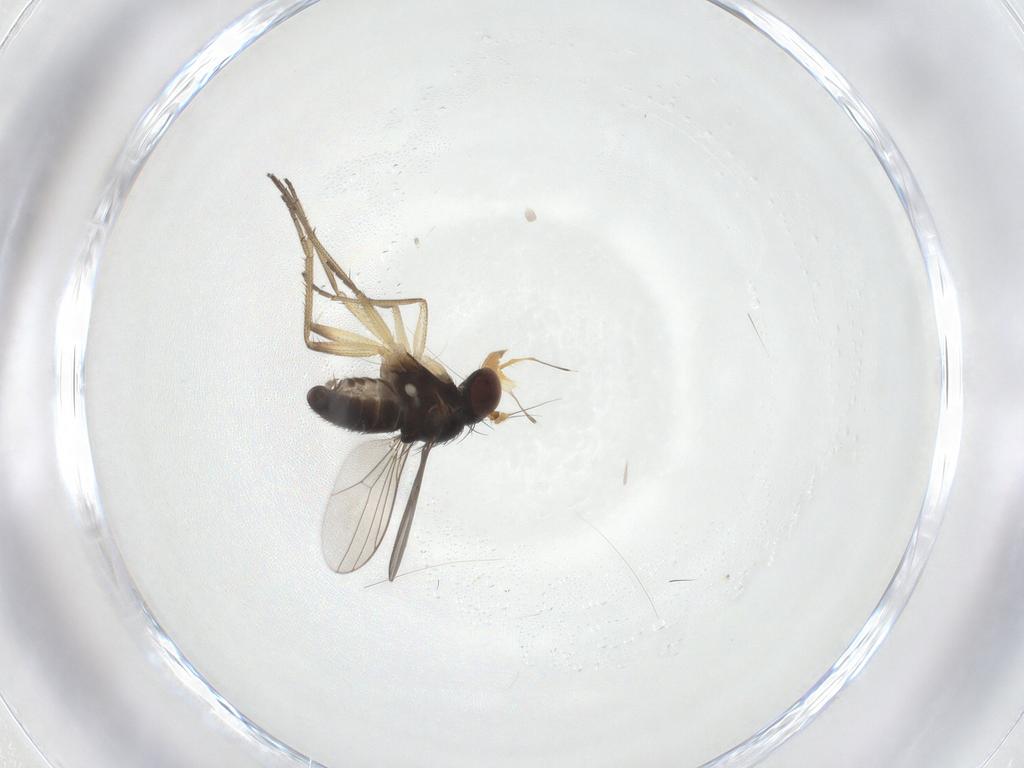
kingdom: Animalia
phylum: Arthropoda
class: Insecta
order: Diptera
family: Dolichopodidae
